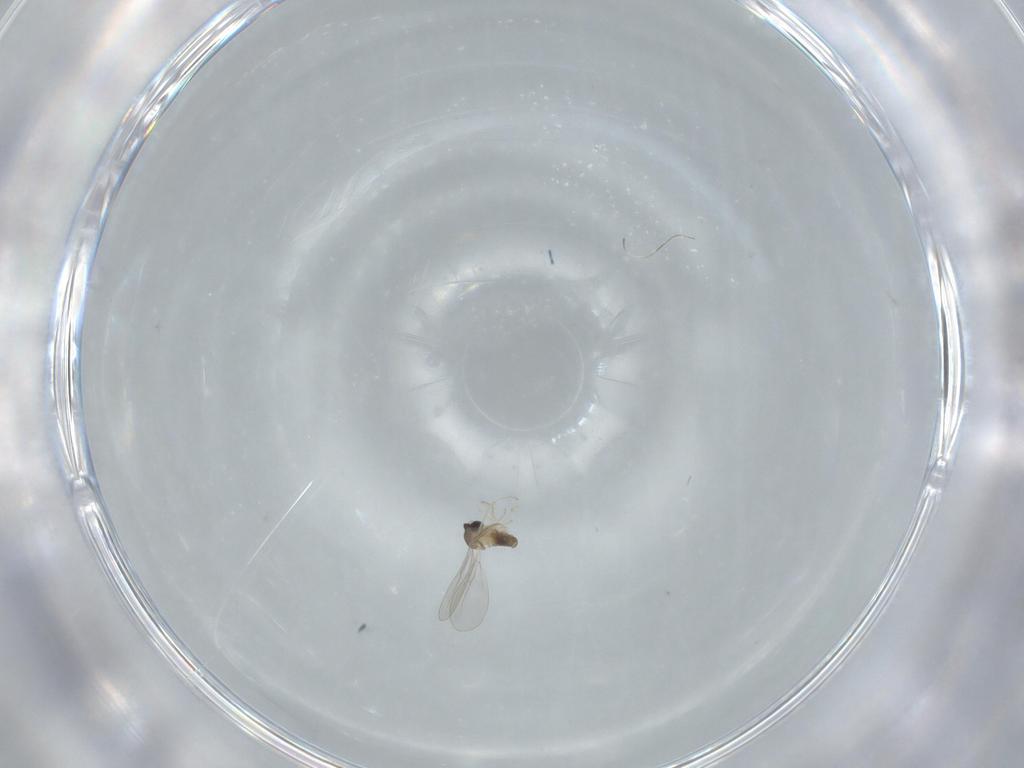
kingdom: Animalia
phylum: Arthropoda
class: Insecta
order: Diptera
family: Cecidomyiidae
